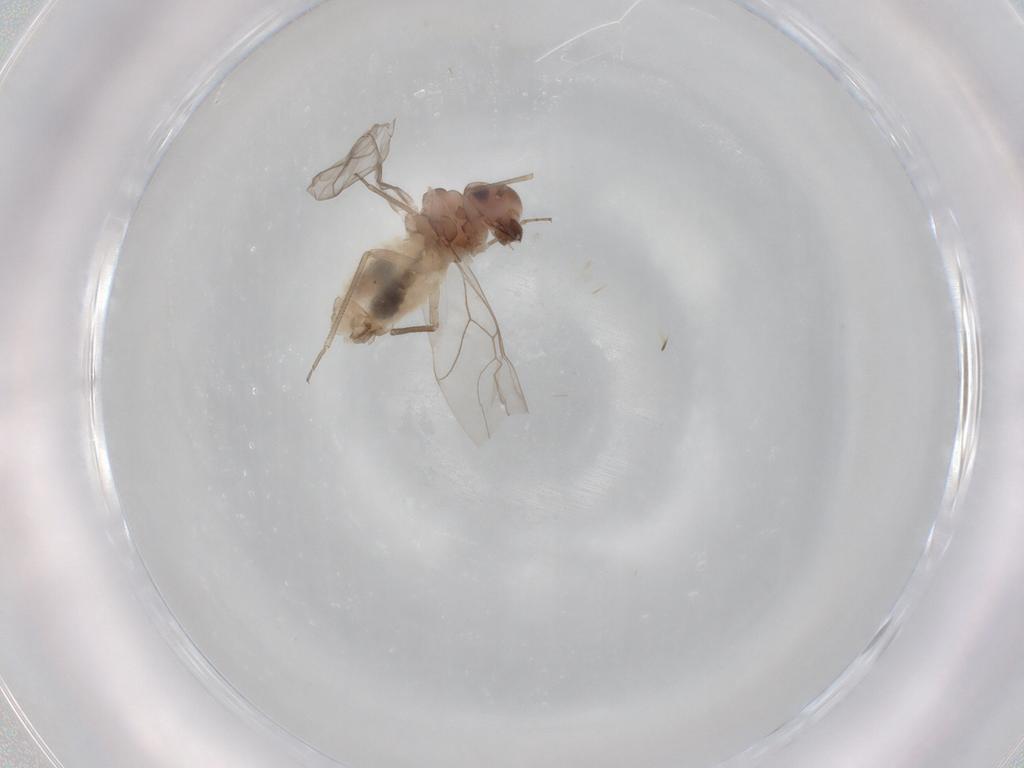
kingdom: Animalia
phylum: Arthropoda
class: Insecta
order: Psocodea
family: Peripsocidae
